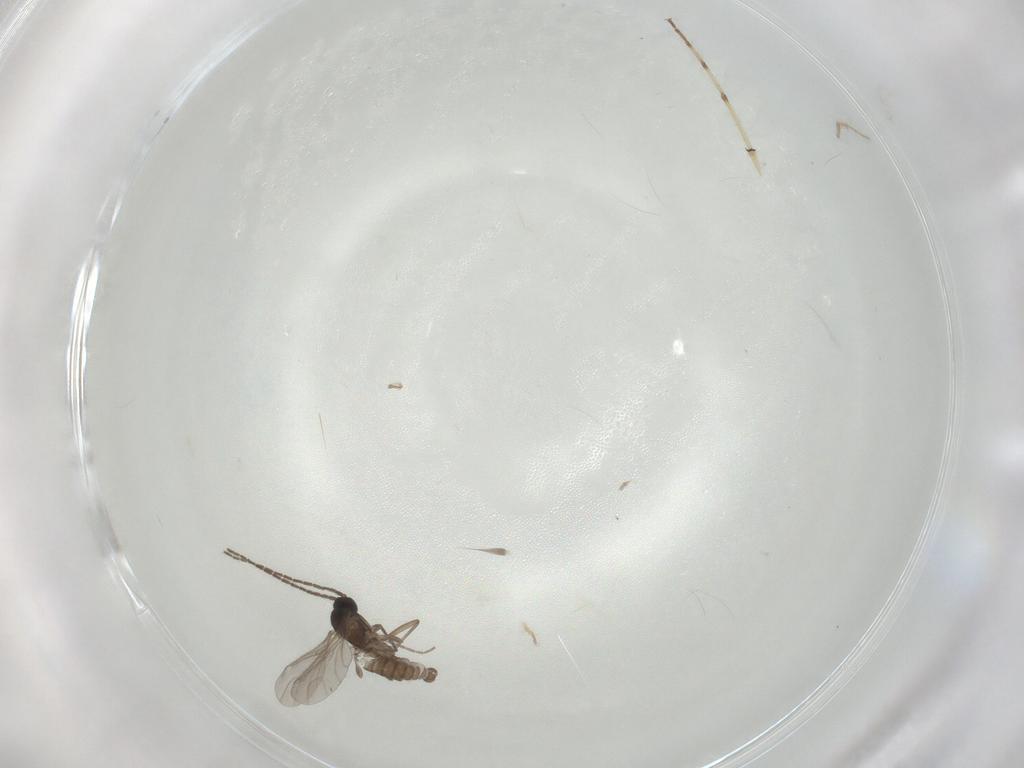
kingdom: Animalia
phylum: Arthropoda
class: Insecta
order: Diptera
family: Sciaridae
